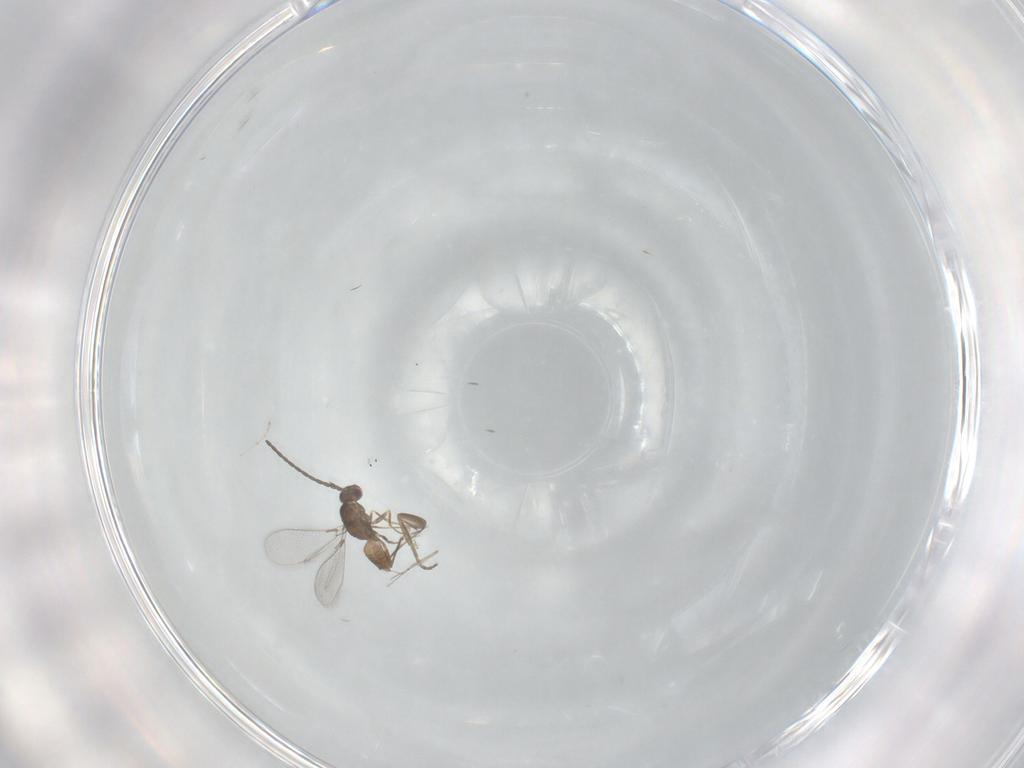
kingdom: Animalia
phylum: Arthropoda
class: Insecta
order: Hymenoptera
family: Mymaridae
